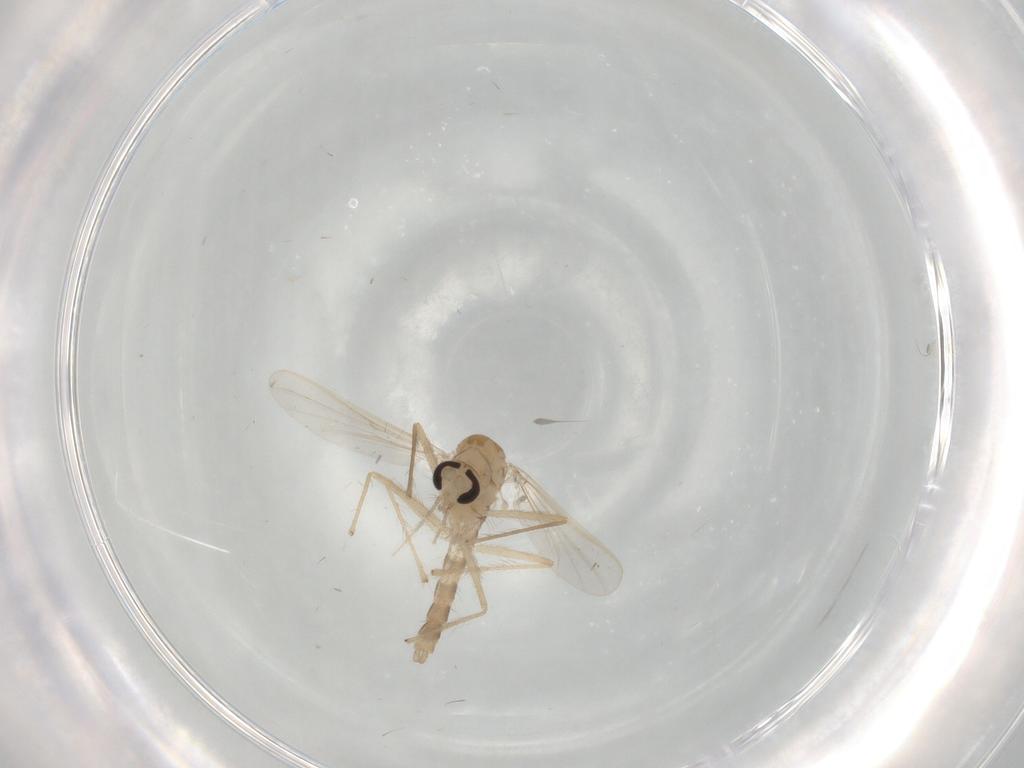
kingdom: Animalia
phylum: Arthropoda
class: Insecta
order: Diptera
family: Chironomidae
